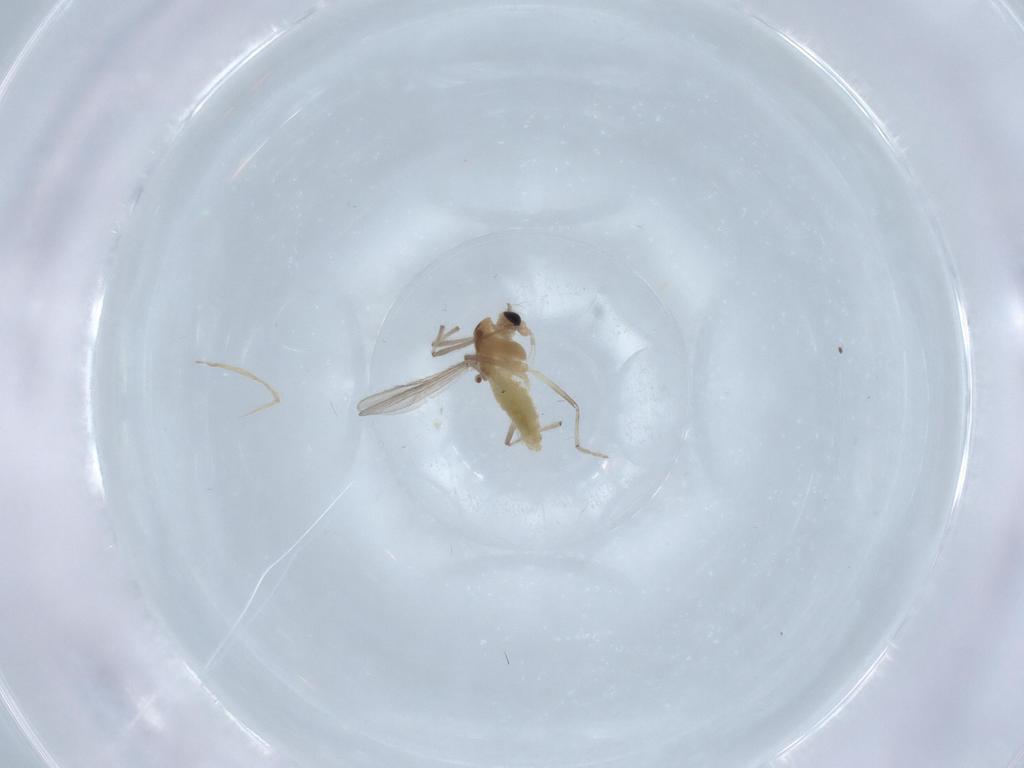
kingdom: Animalia
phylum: Arthropoda
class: Insecta
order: Diptera
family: Chironomidae
